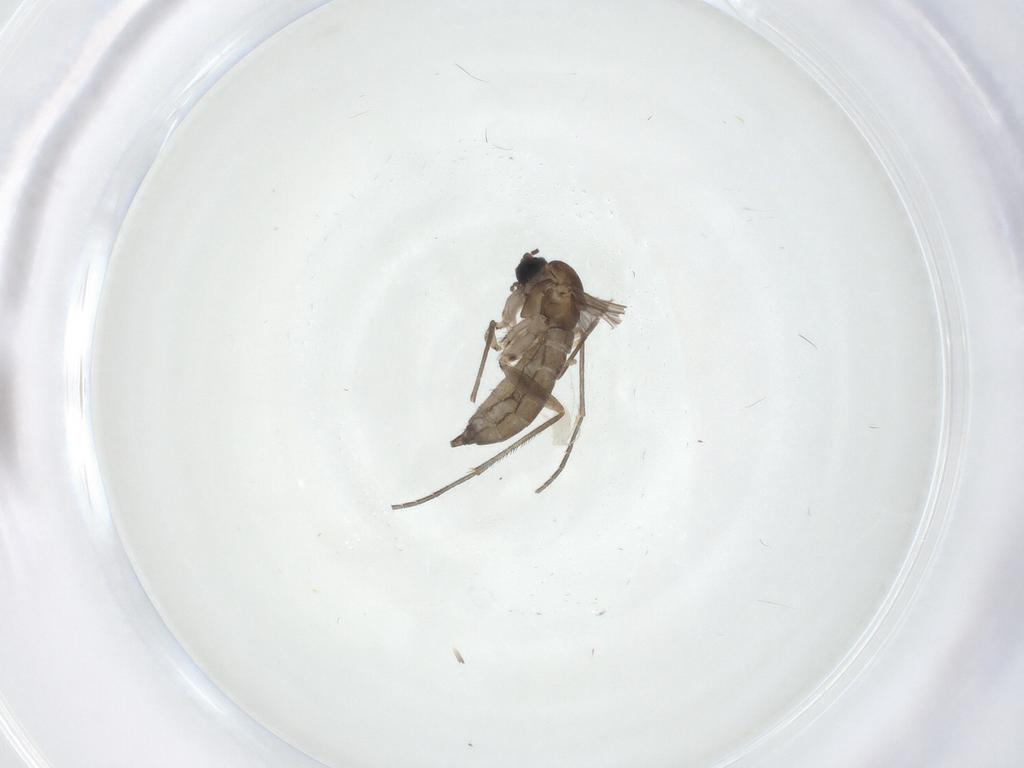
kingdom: Animalia
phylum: Arthropoda
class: Insecta
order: Diptera
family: Sciaridae
